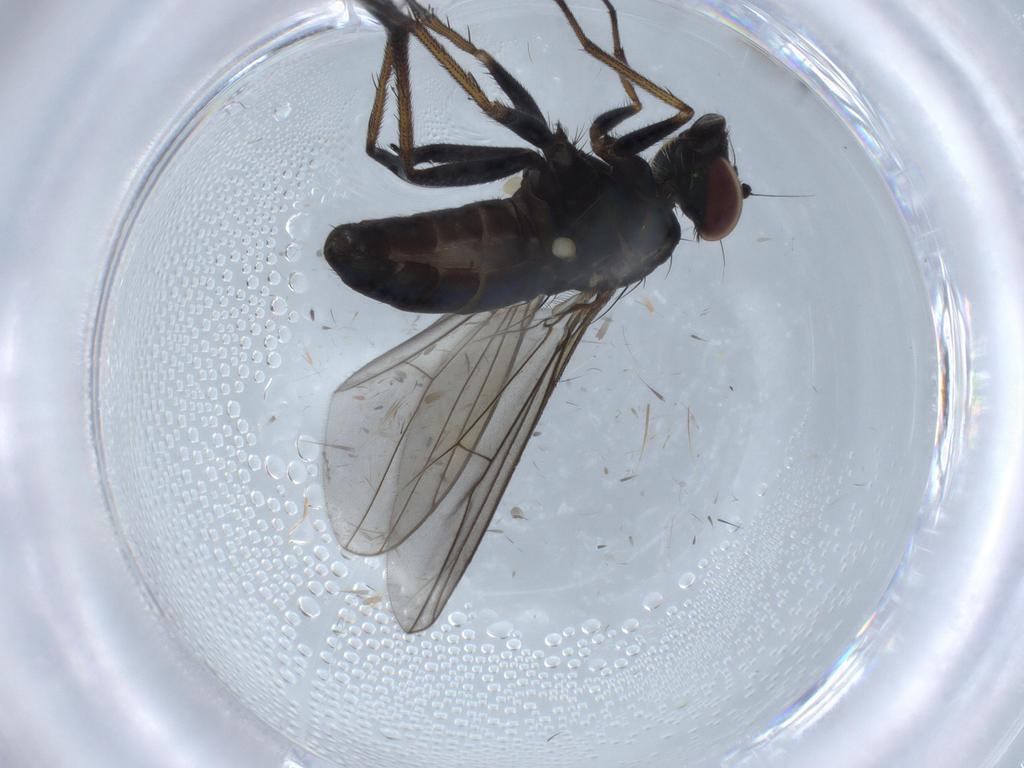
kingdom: Animalia
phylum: Arthropoda
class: Insecta
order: Diptera
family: Dolichopodidae
